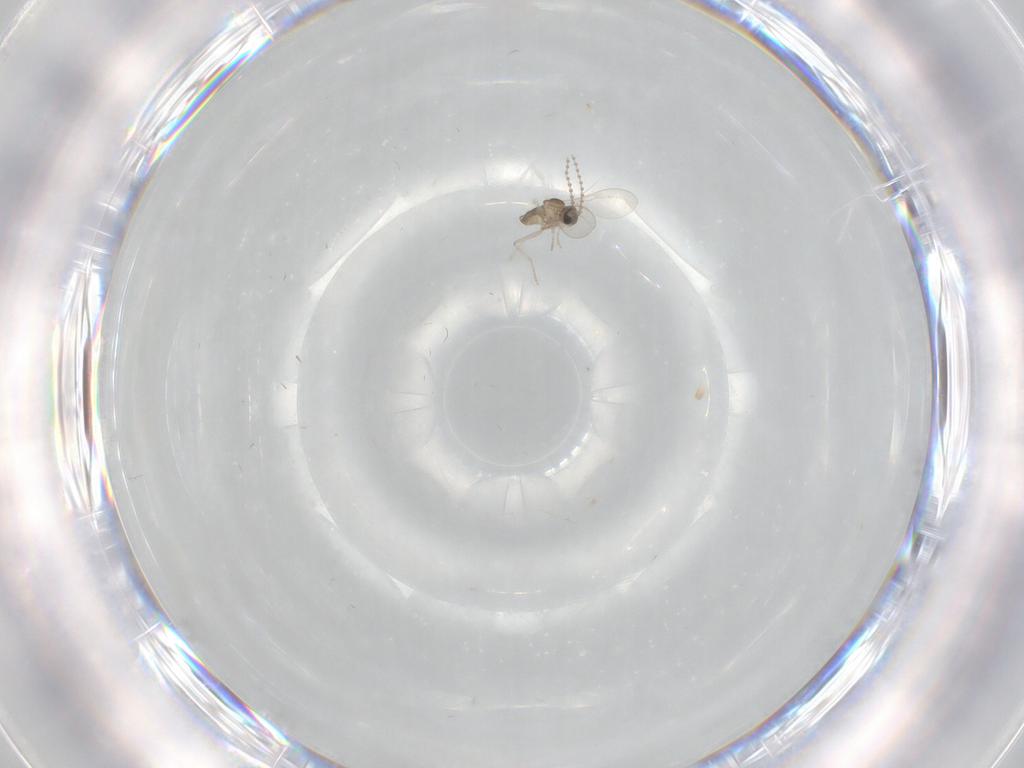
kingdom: Animalia
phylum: Arthropoda
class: Insecta
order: Diptera
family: Cecidomyiidae
